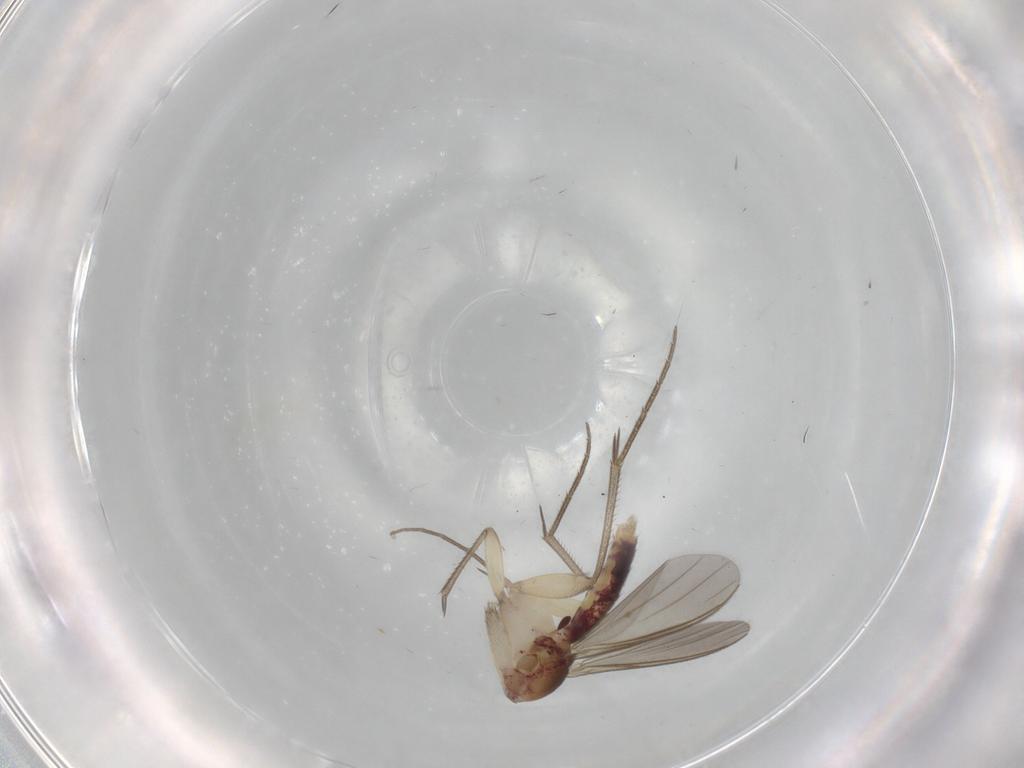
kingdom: Animalia
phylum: Arthropoda
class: Insecta
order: Diptera
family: Mycetophilidae
